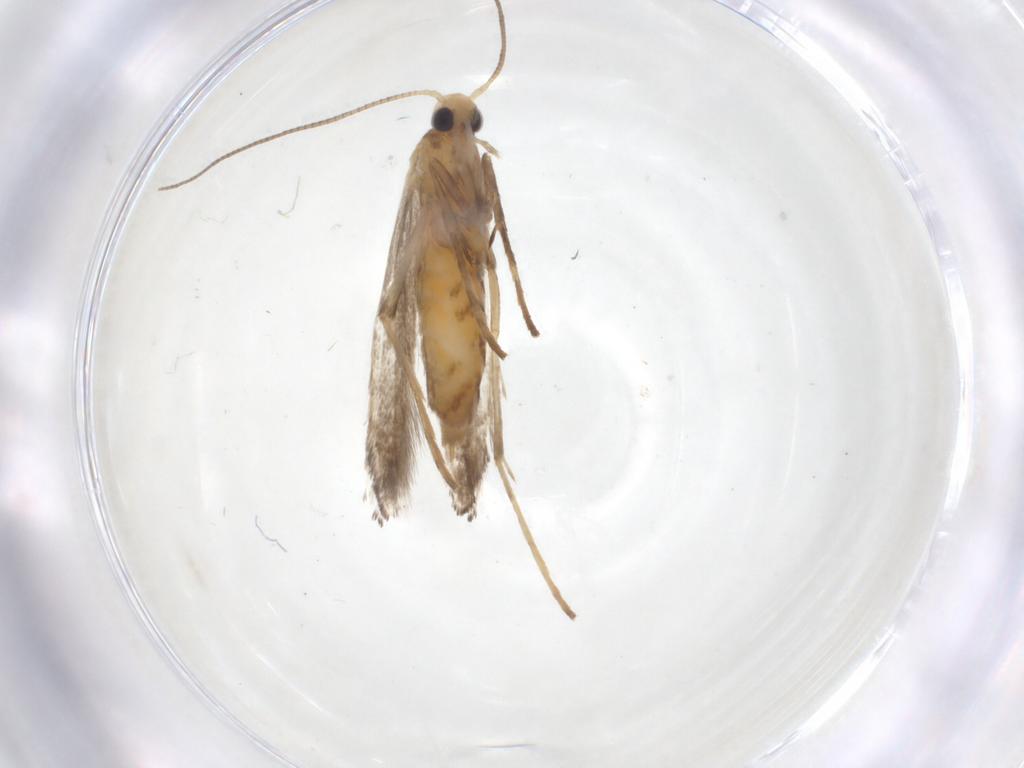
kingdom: Animalia
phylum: Arthropoda
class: Insecta
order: Lepidoptera
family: Gracillariidae
